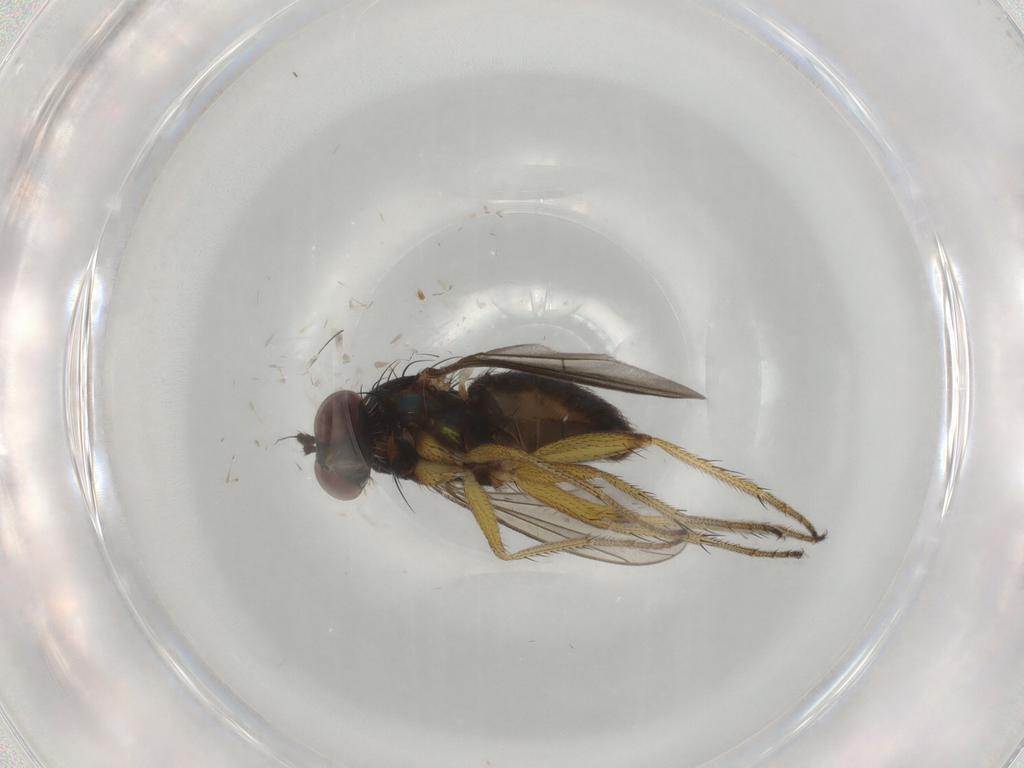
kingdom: Animalia
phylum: Arthropoda
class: Insecta
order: Diptera
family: Dolichopodidae
